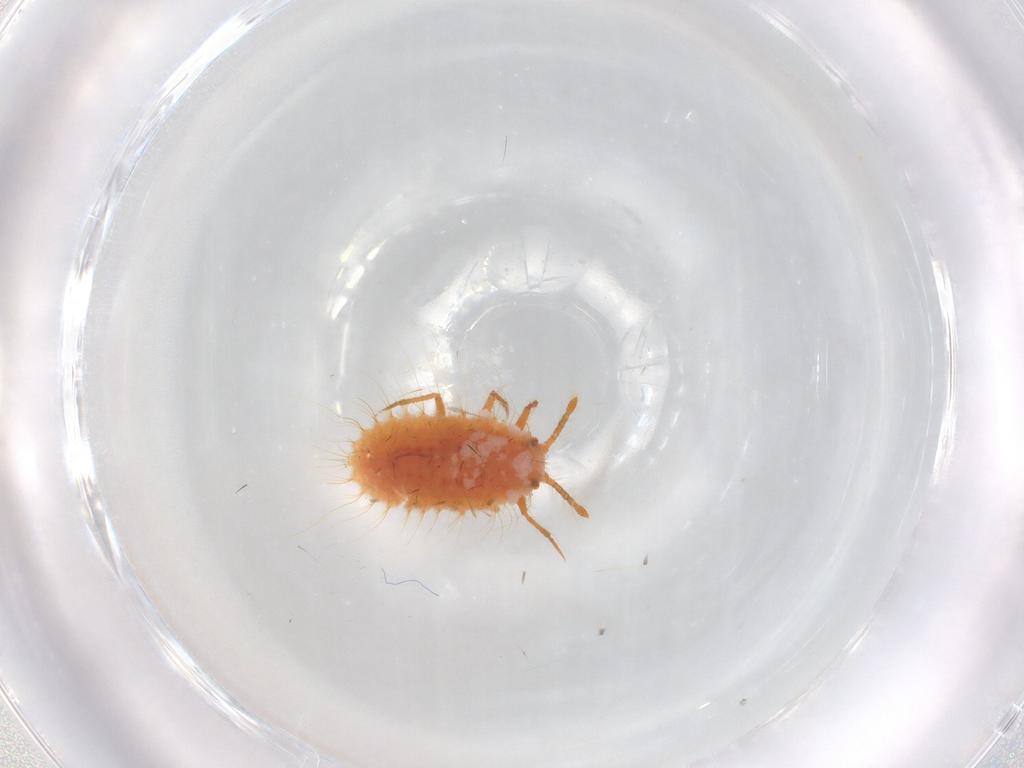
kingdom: Animalia
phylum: Arthropoda
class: Insecta
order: Hemiptera
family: Coccoidea_incertae_sedis
